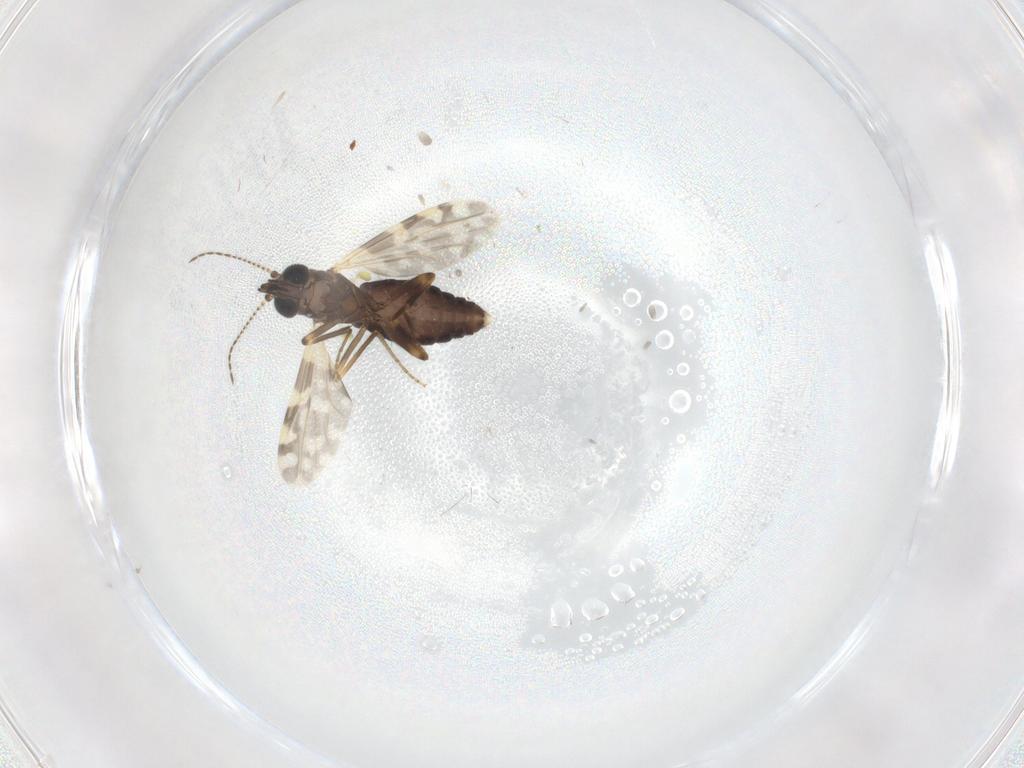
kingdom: Animalia
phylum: Arthropoda
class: Insecta
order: Diptera
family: Ceratopogonidae
